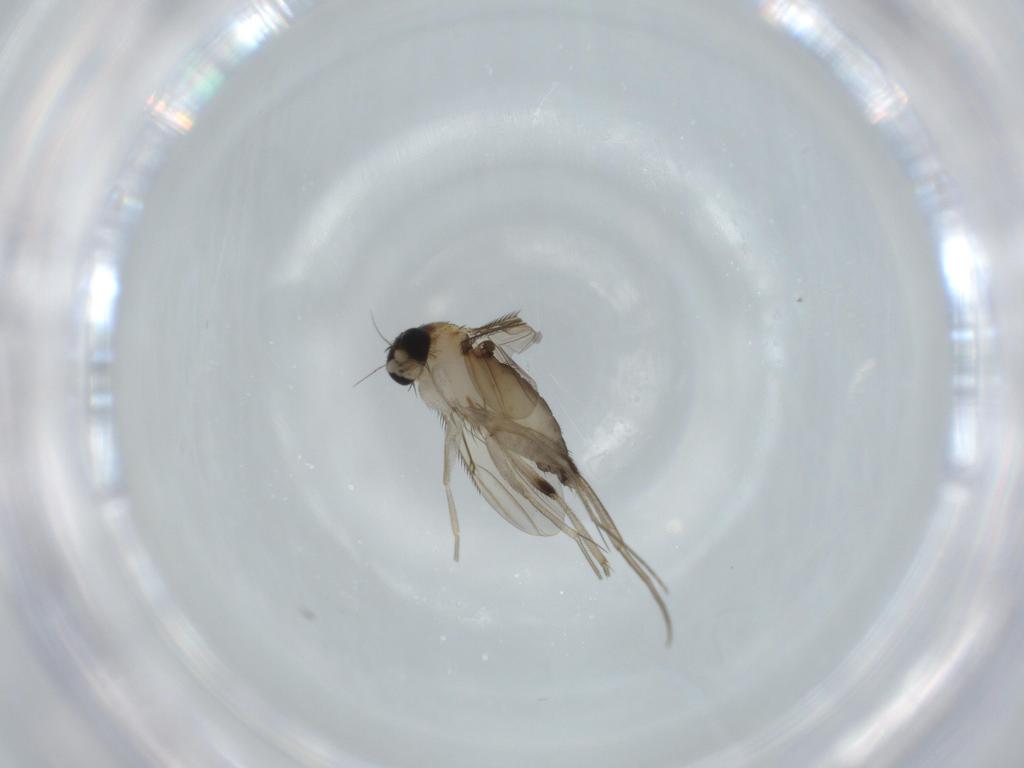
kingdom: Animalia
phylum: Arthropoda
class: Insecta
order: Diptera
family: Phoridae
